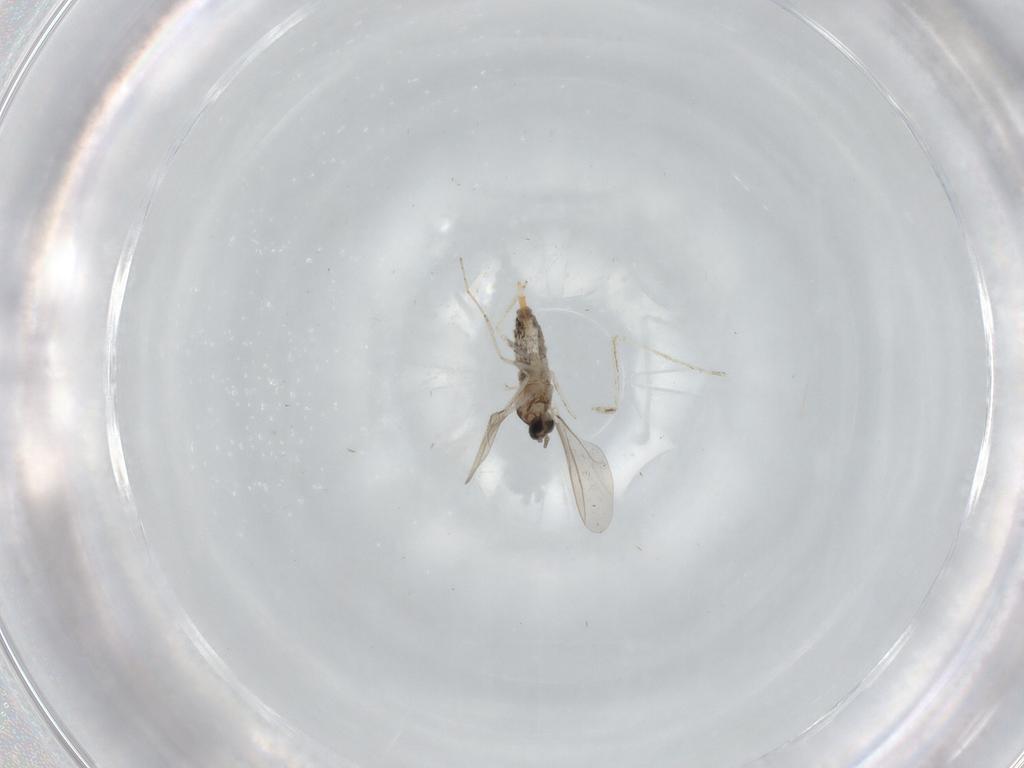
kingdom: Animalia
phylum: Arthropoda
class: Insecta
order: Diptera
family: Cecidomyiidae
